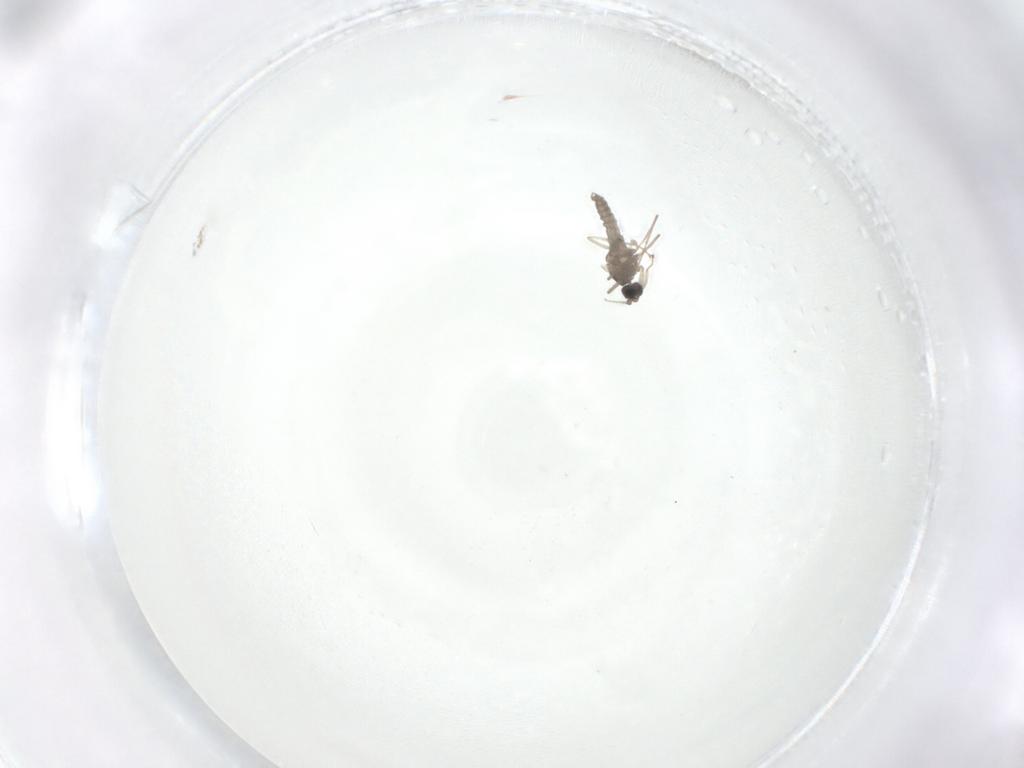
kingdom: Animalia
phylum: Arthropoda
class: Insecta
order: Diptera
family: Cecidomyiidae
